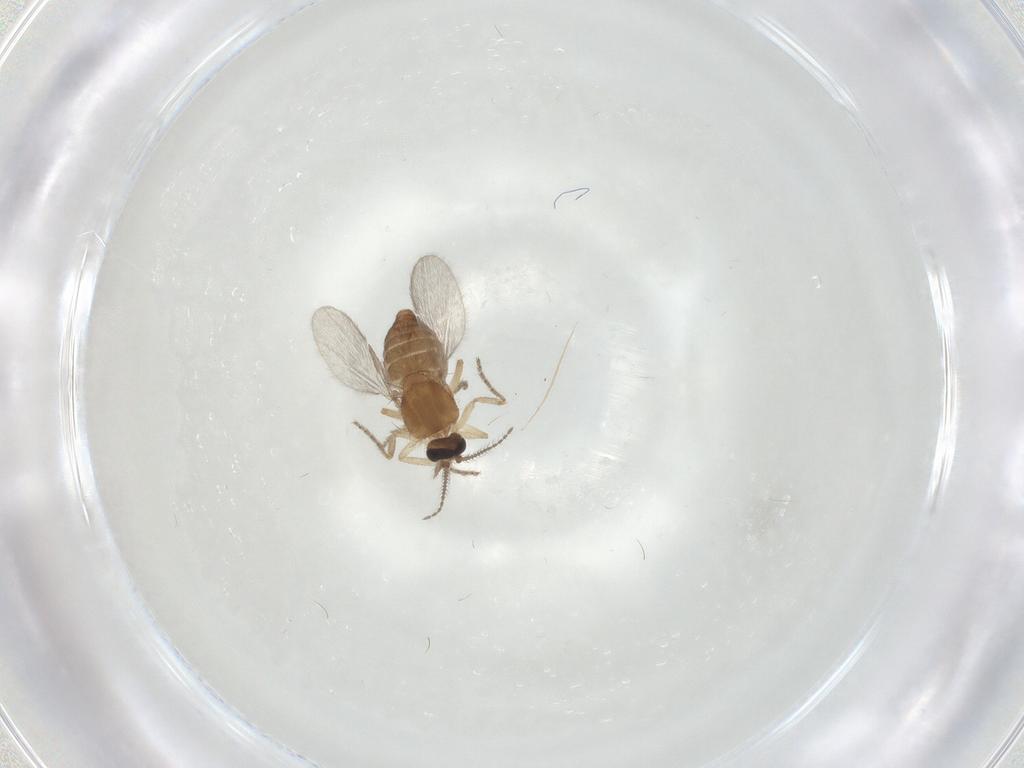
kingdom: Animalia
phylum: Arthropoda
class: Insecta
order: Diptera
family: Ceratopogonidae
